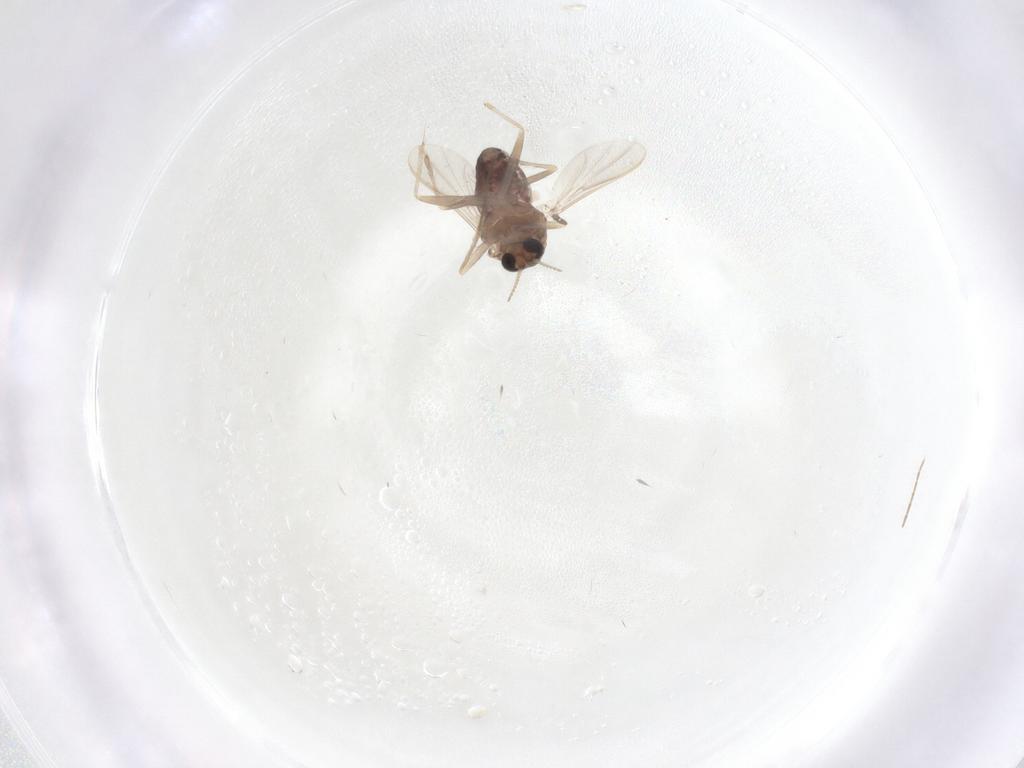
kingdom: Animalia
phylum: Arthropoda
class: Insecta
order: Diptera
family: Chironomidae
